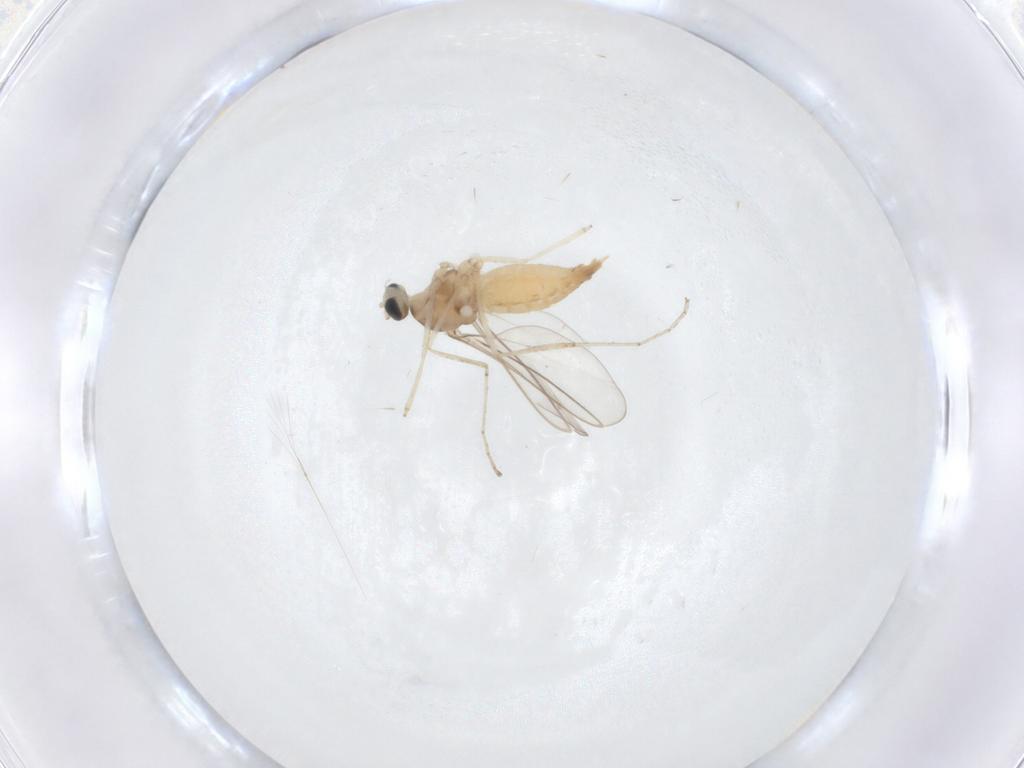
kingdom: Animalia
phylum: Arthropoda
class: Insecta
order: Diptera
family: Cecidomyiidae
